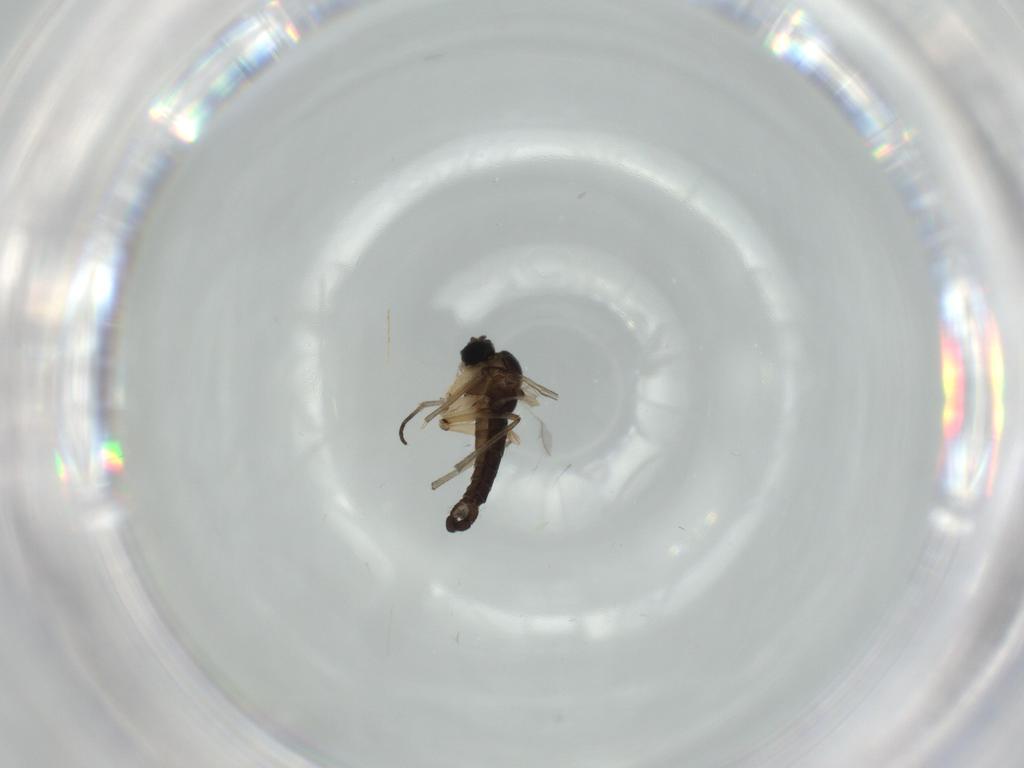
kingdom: Animalia
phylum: Arthropoda
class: Insecta
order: Diptera
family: Sciaridae
